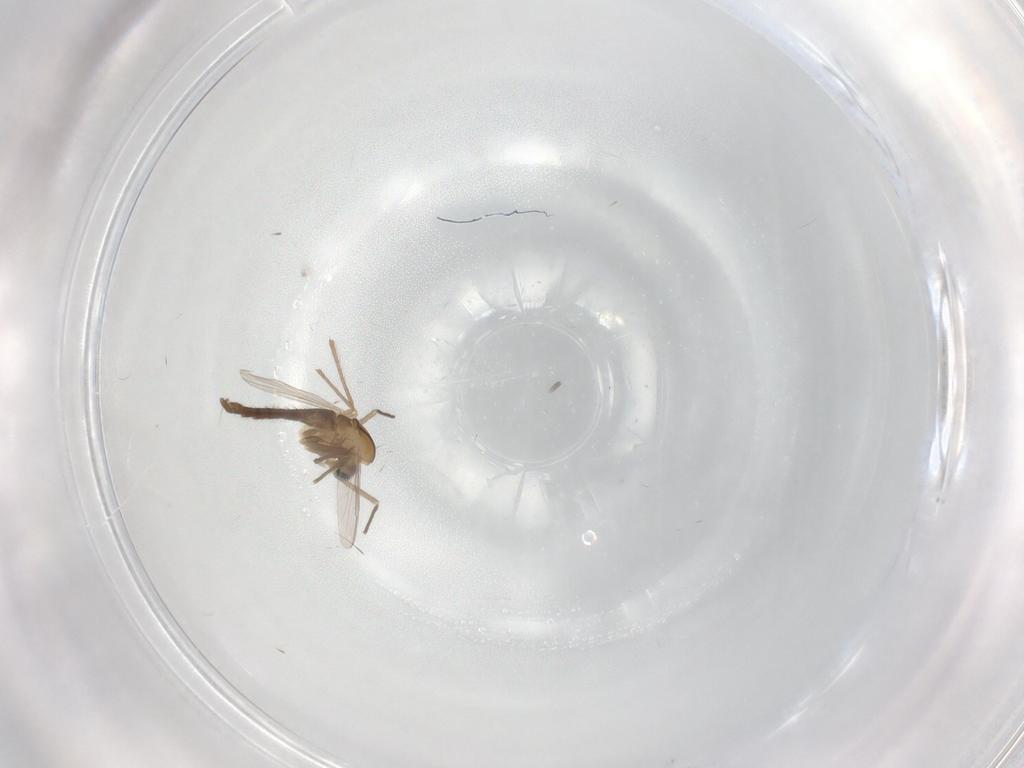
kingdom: Animalia
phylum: Arthropoda
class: Insecta
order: Diptera
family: Chironomidae
